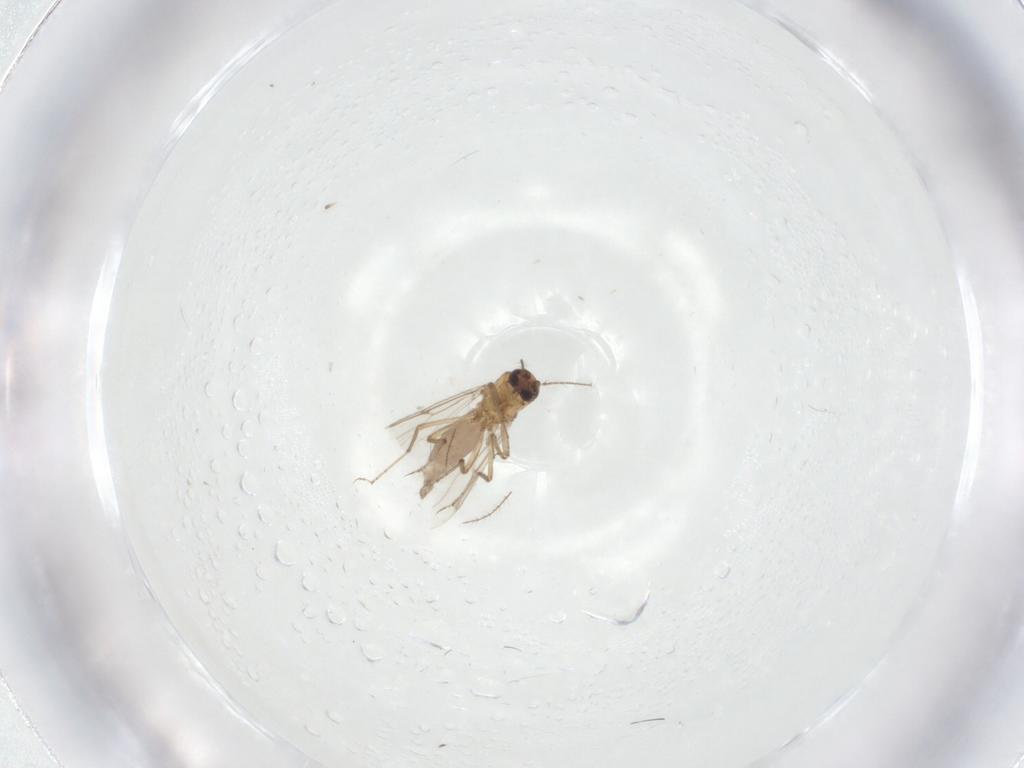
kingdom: Animalia
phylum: Arthropoda
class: Insecta
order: Diptera
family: Ceratopogonidae
